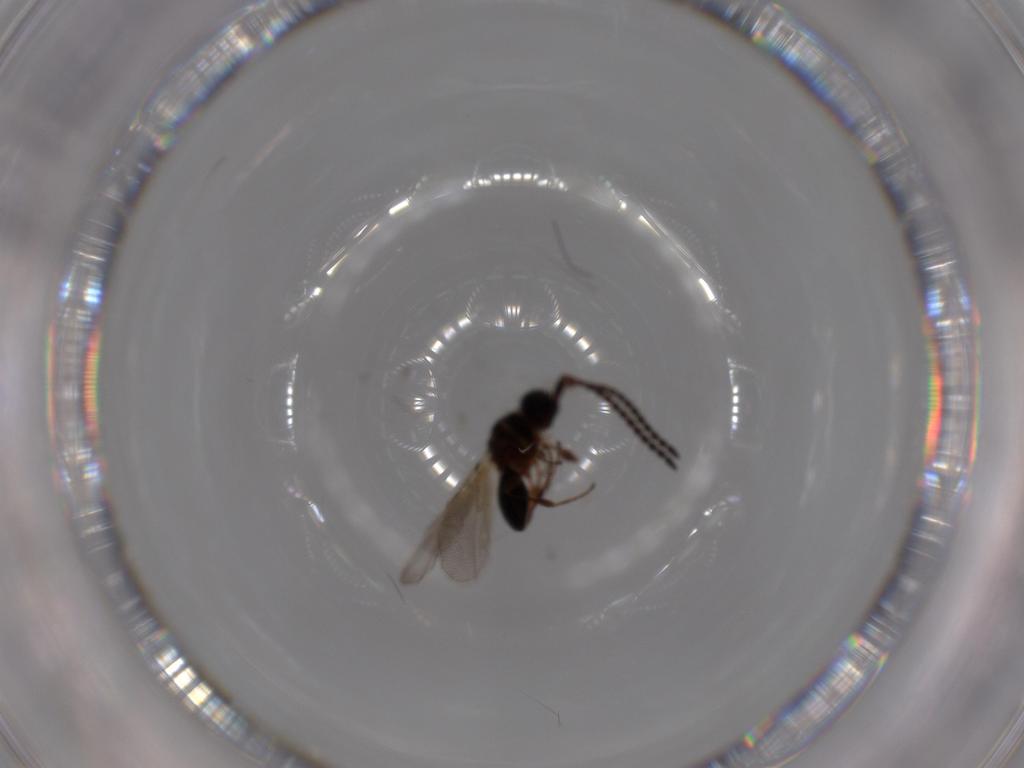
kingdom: Animalia
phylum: Arthropoda
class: Insecta
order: Hymenoptera
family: Diapriidae
